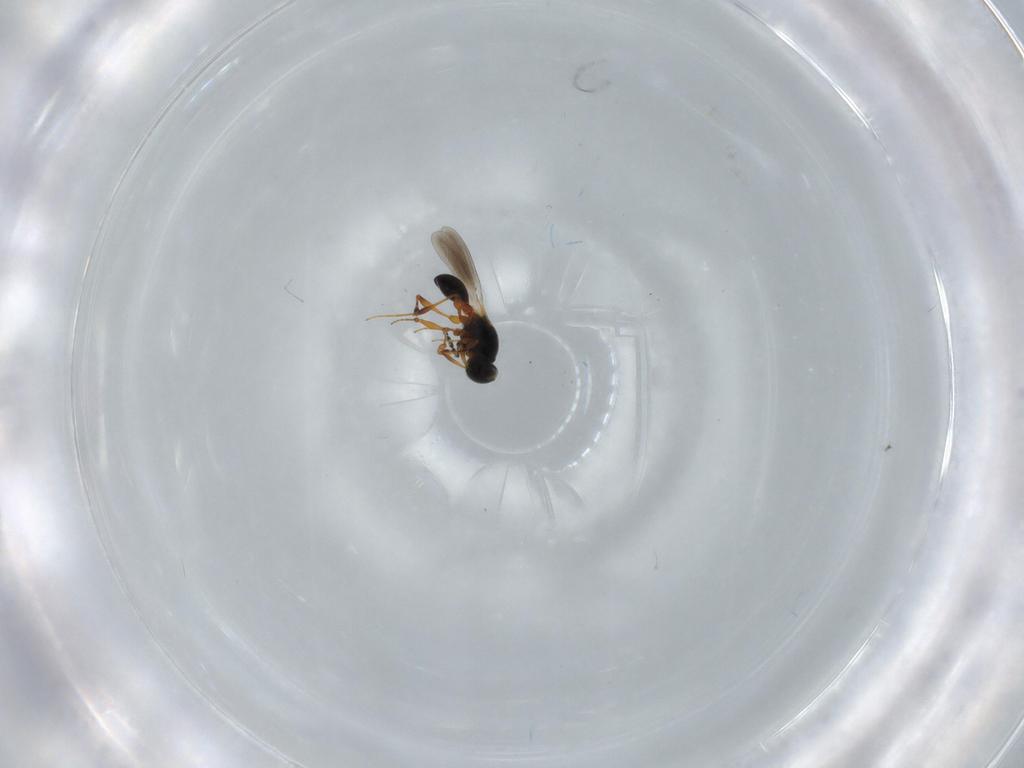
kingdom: Animalia
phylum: Arthropoda
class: Insecta
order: Hymenoptera
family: Platygastridae
